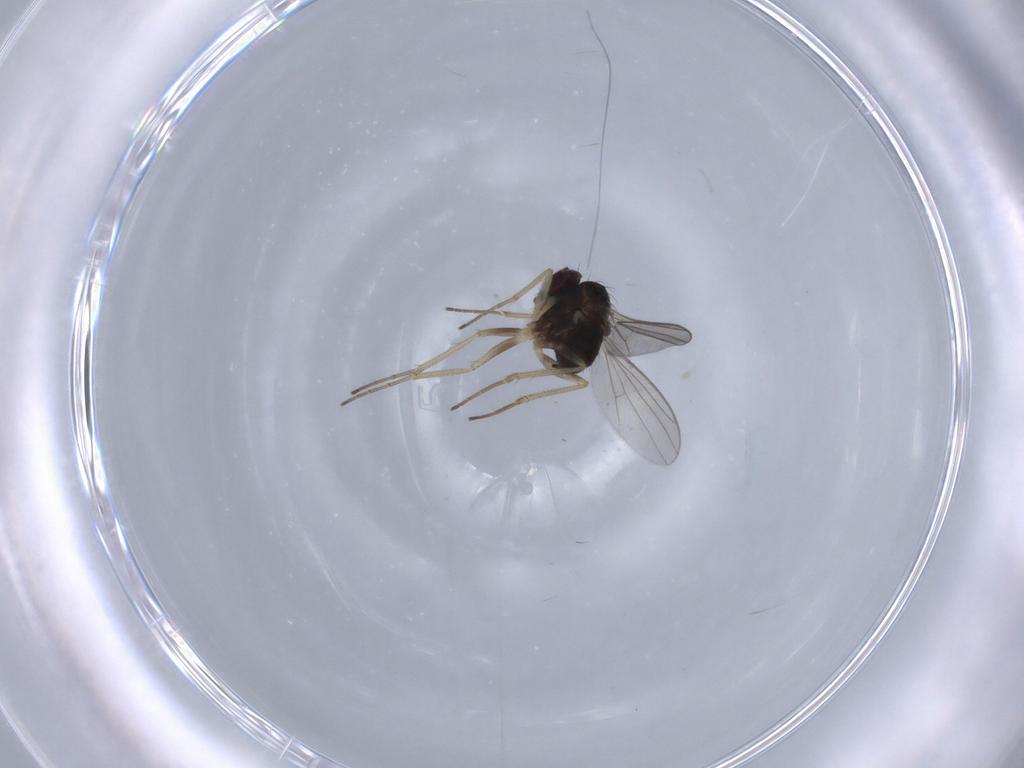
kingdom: Animalia
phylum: Arthropoda
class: Insecta
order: Diptera
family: Dolichopodidae
